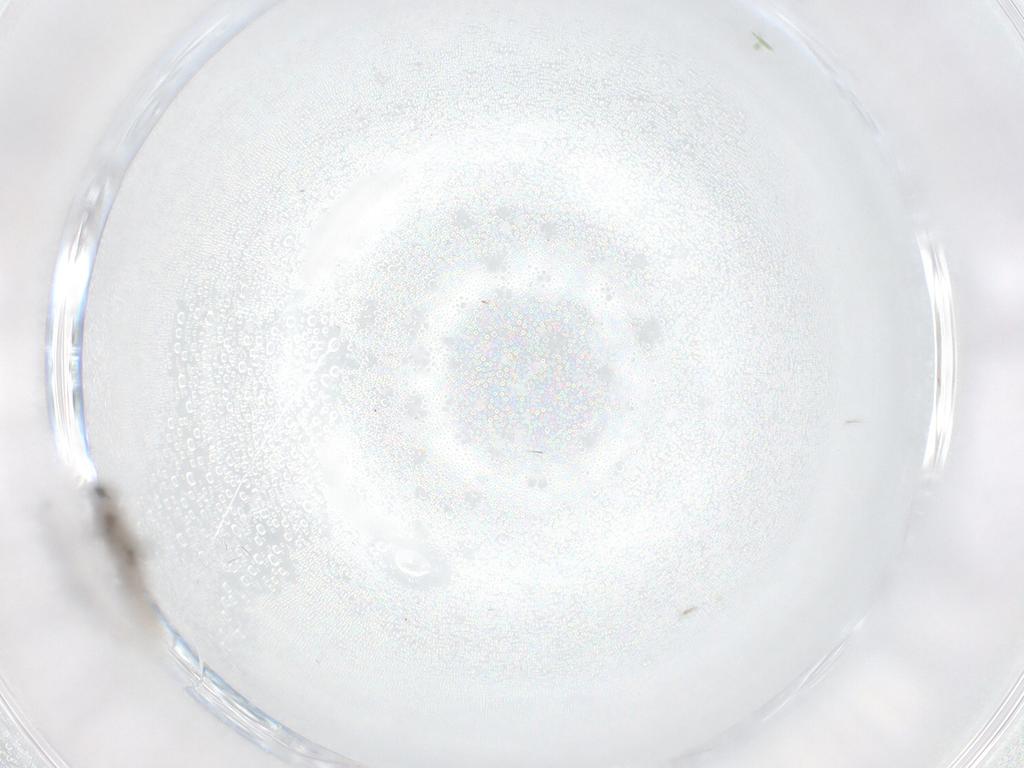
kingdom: Animalia
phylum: Arthropoda
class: Insecta
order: Diptera
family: Phoridae
